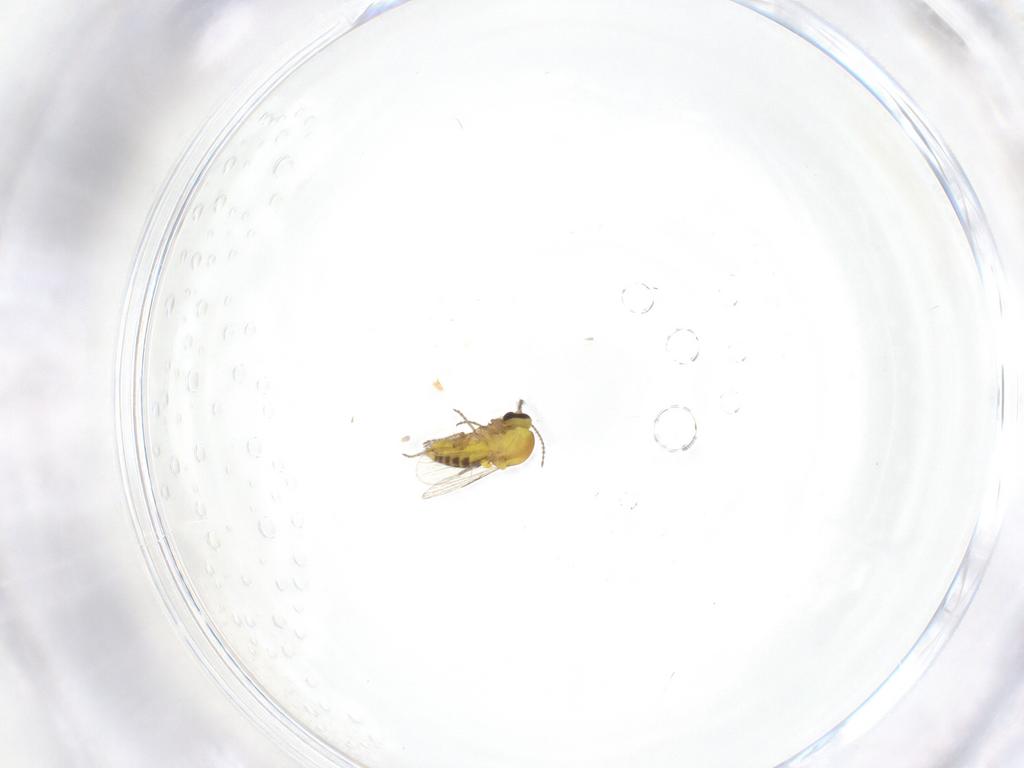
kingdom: Animalia
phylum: Arthropoda
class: Insecta
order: Diptera
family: Ceratopogonidae
